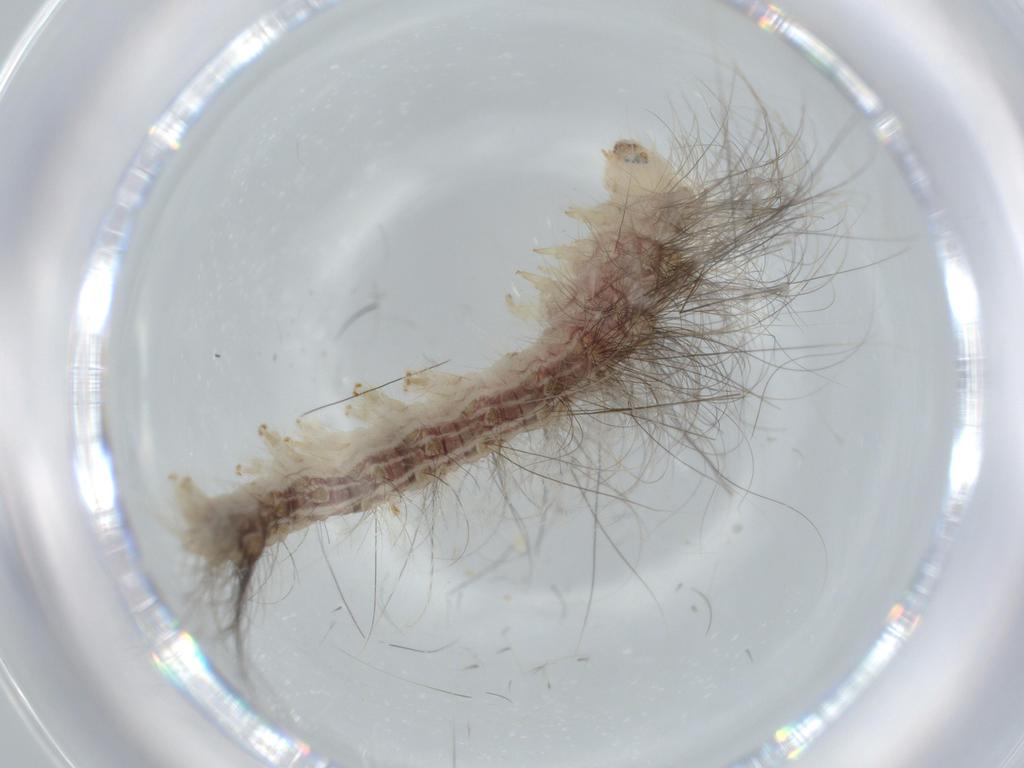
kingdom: Animalia
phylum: Arthropoda
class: Insecta
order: Lepidoptera
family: Apatelodidae
